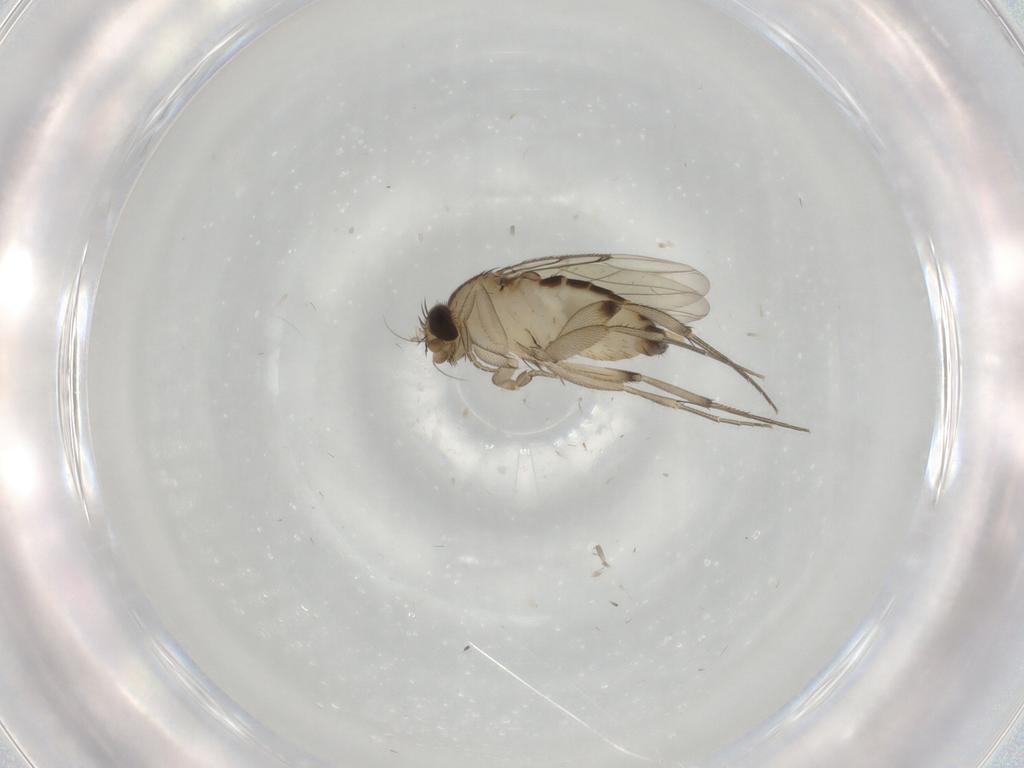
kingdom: Animalia
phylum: Arthropoda
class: Insecta
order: Diptera
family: Phoridae
